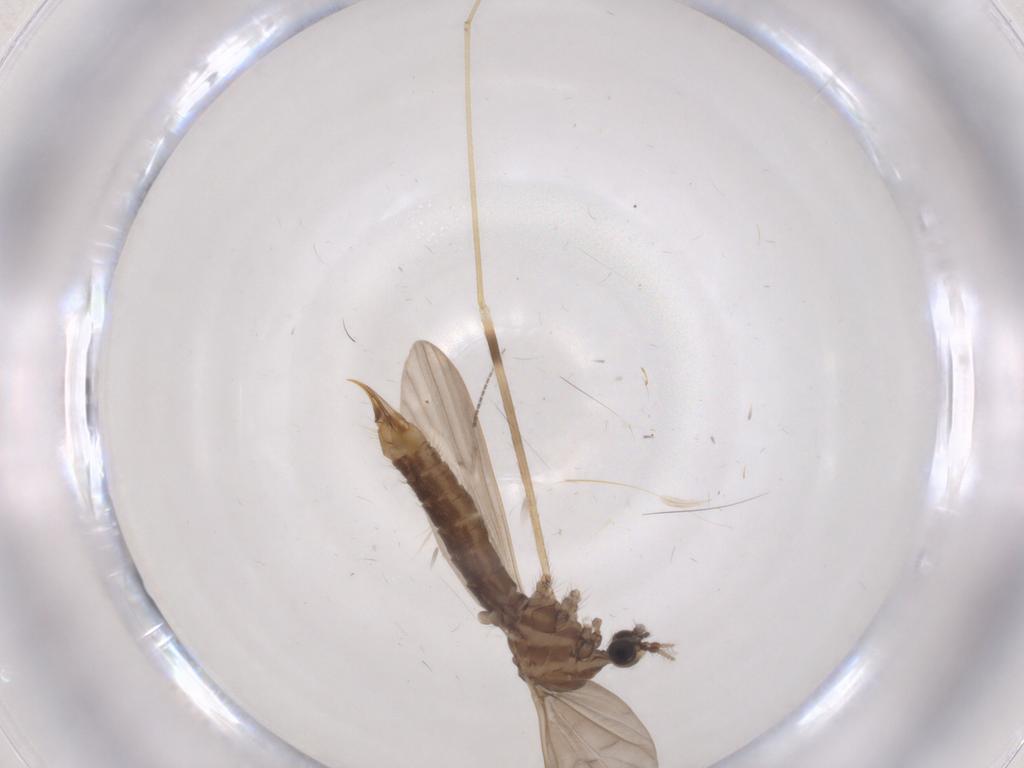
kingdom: Animalia
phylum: Arthropoda
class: Insecta
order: Diptera
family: Limoniidae
